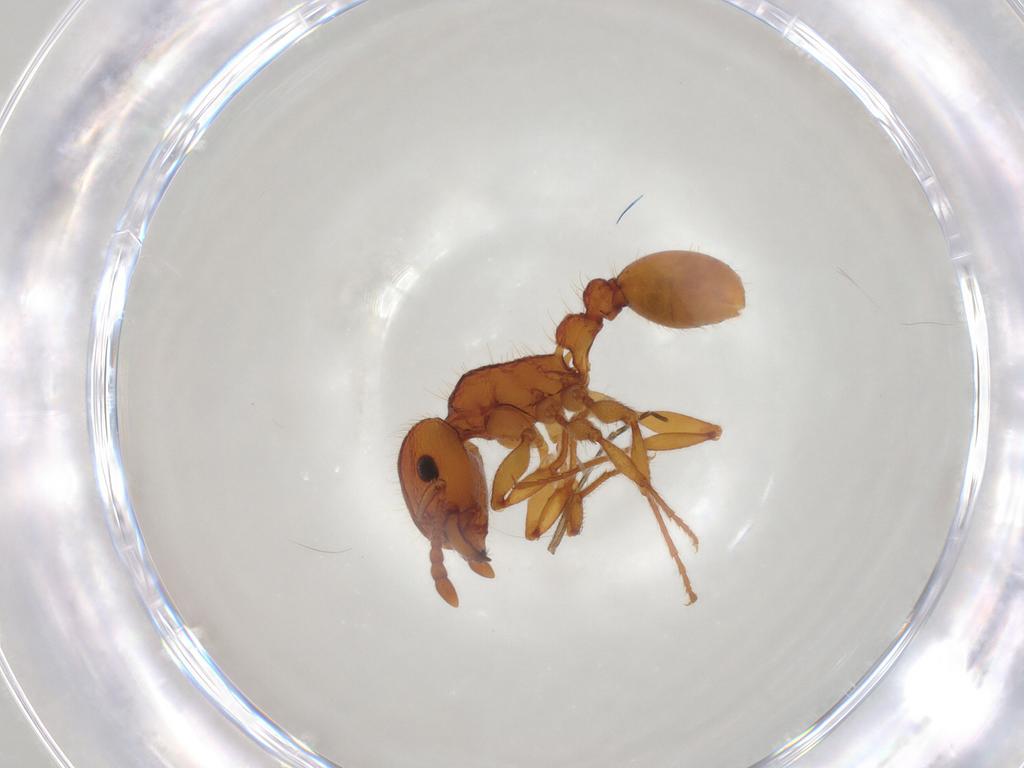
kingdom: Animalia
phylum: Arthropoda
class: Insecta
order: Hymenoptera
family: Formicidae
